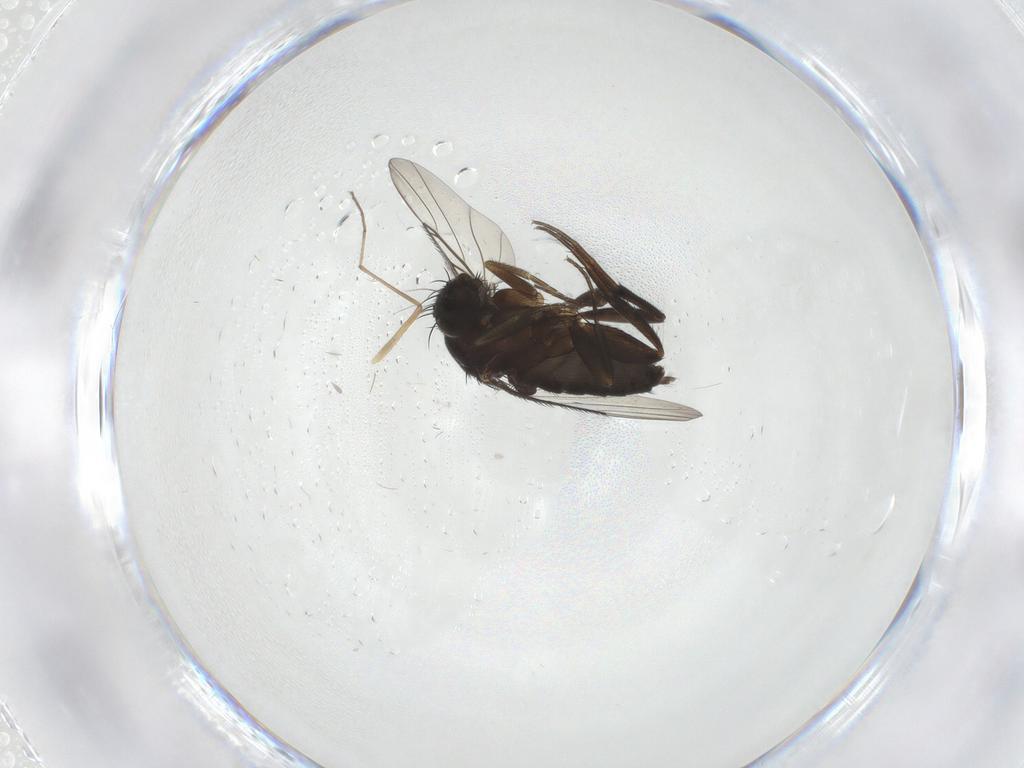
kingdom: Animalia
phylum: Arthropoda
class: Insecta
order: Diptera
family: Phoridae
